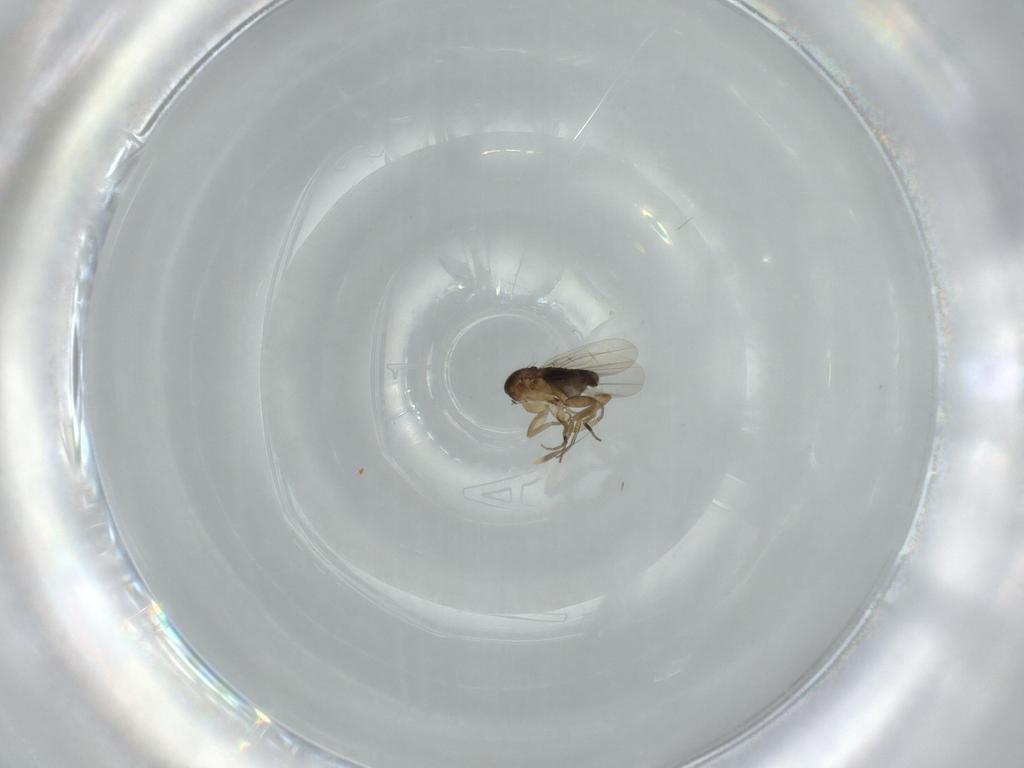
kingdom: Animalia
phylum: Arthropoda
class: Insecta
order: Diptera
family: Phoridae
